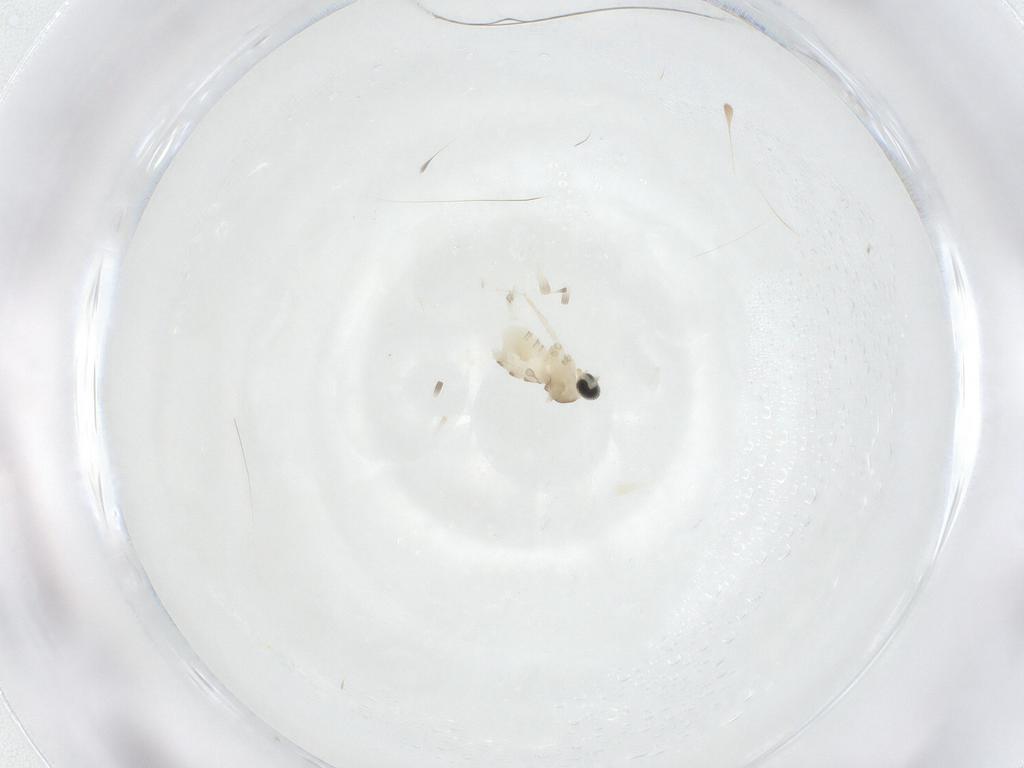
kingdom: Animalia
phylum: Arthropoda
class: Insecta
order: Diptera
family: Cecidomyiidae
